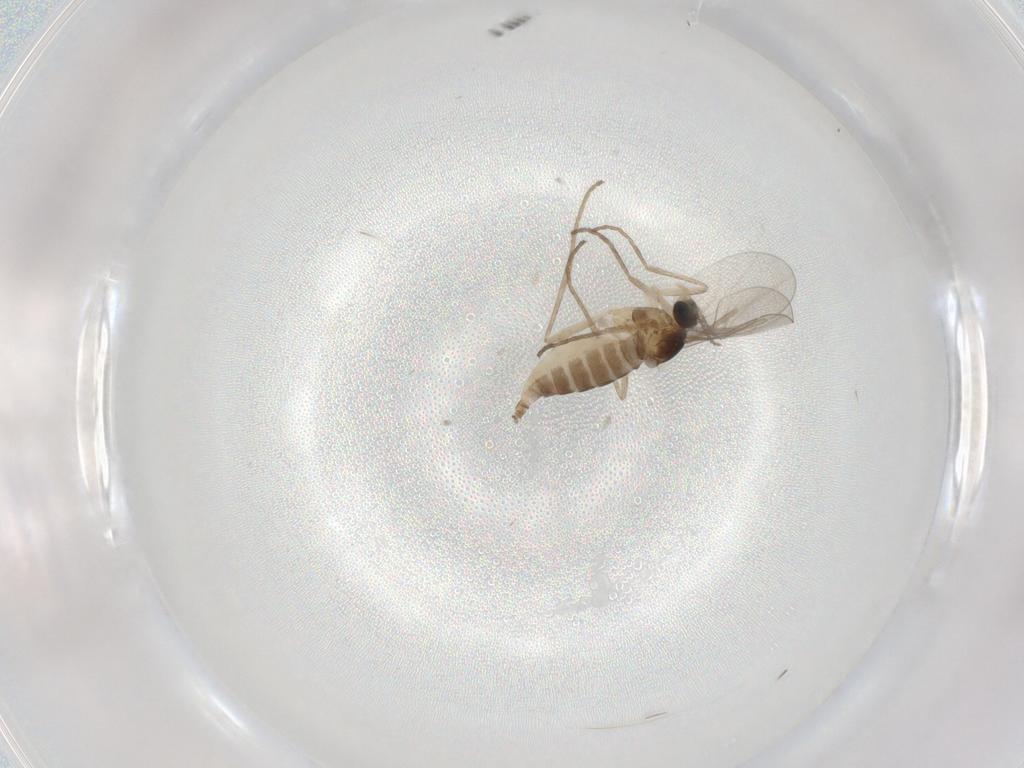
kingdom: Animalia
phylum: Arthropoda
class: Insecta
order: Diptera
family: Cecidomyiidae
